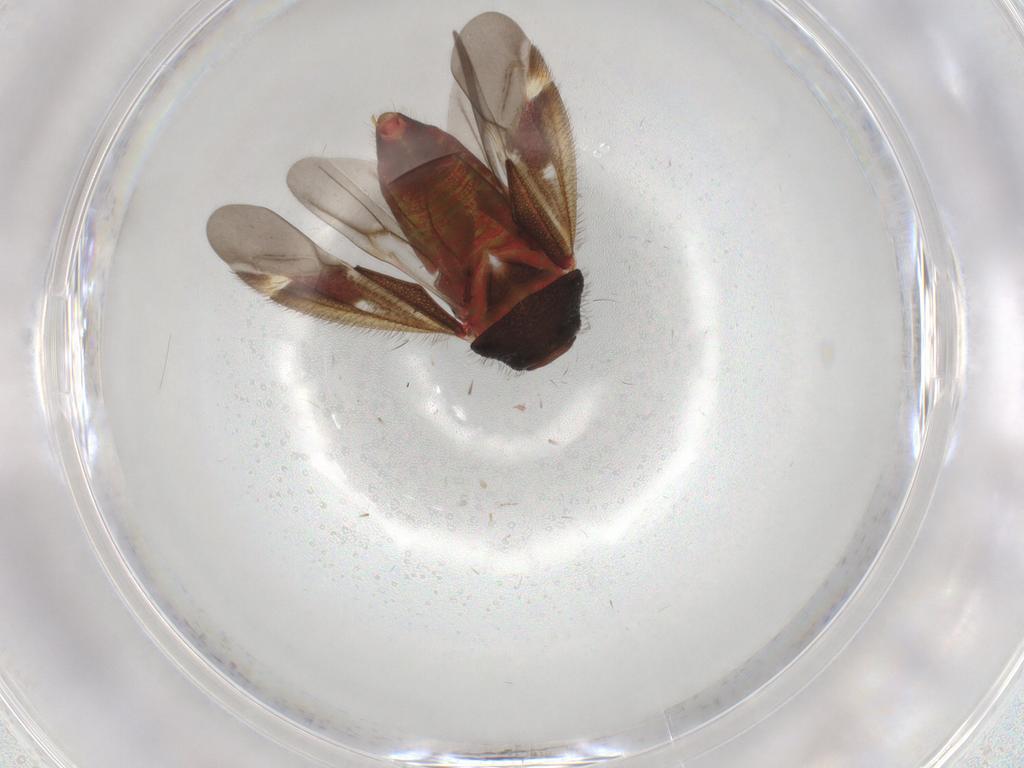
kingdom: Animalia
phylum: Arthropoda
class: Insecta
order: Hemiptera
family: Miridae
